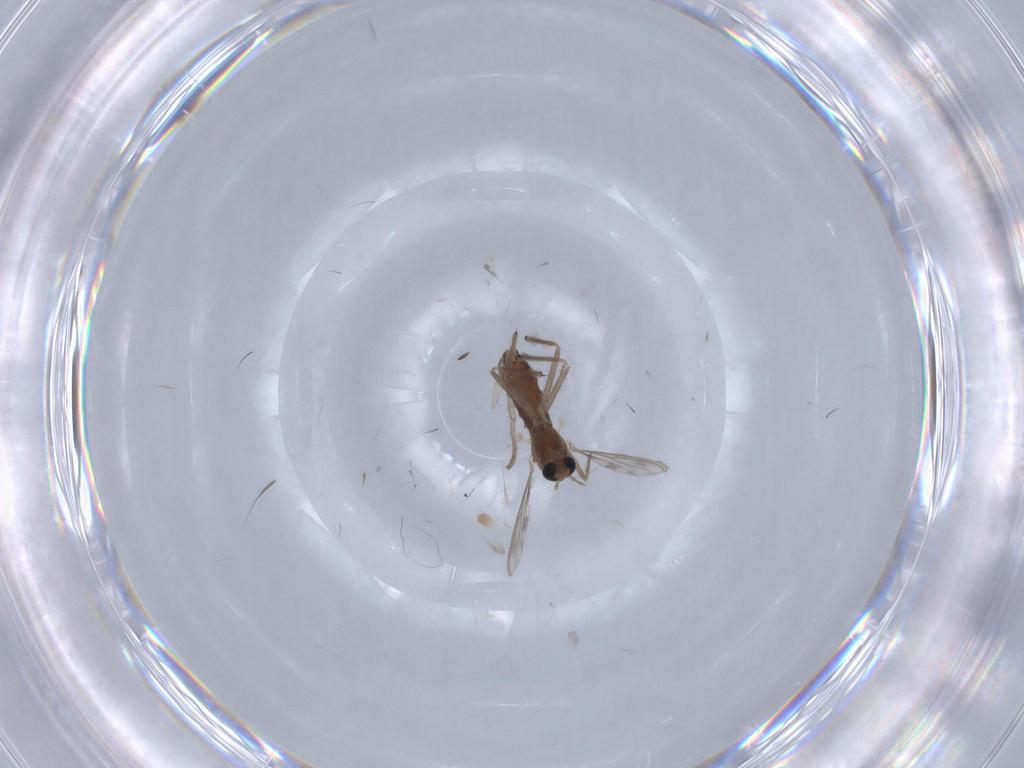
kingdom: Animalia
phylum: Arthropoda
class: Insecta
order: Diptera
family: Chironomidae
